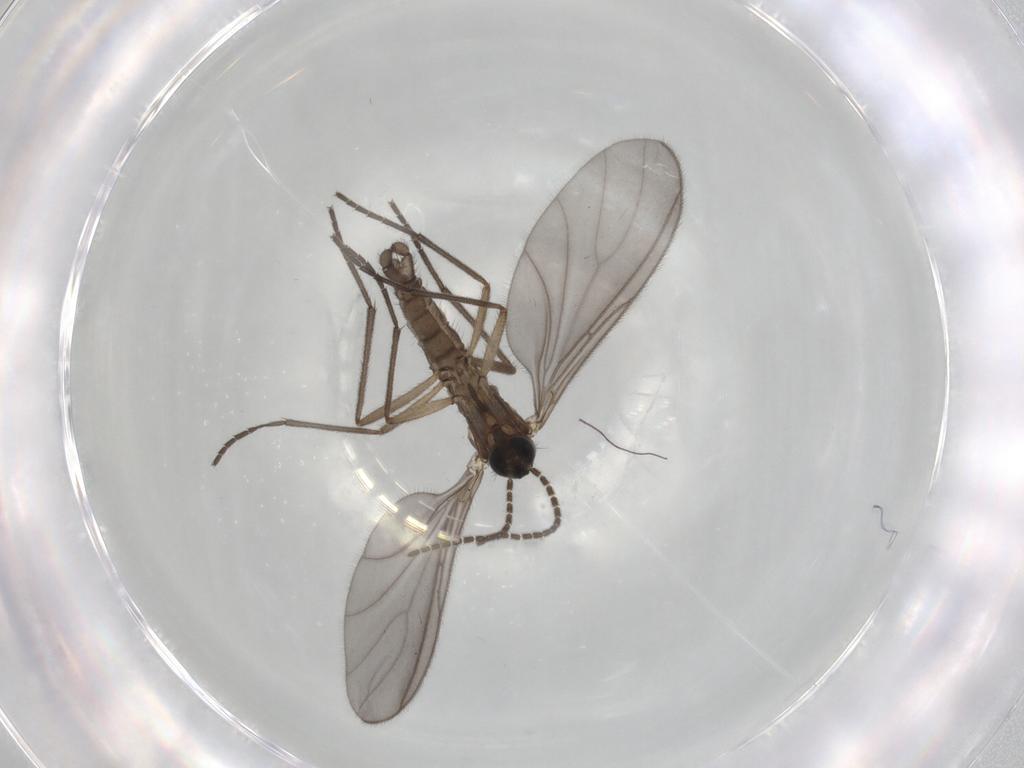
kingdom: Animalia
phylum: Arthropoda
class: Insecta
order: Diptera
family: Sciaridae
